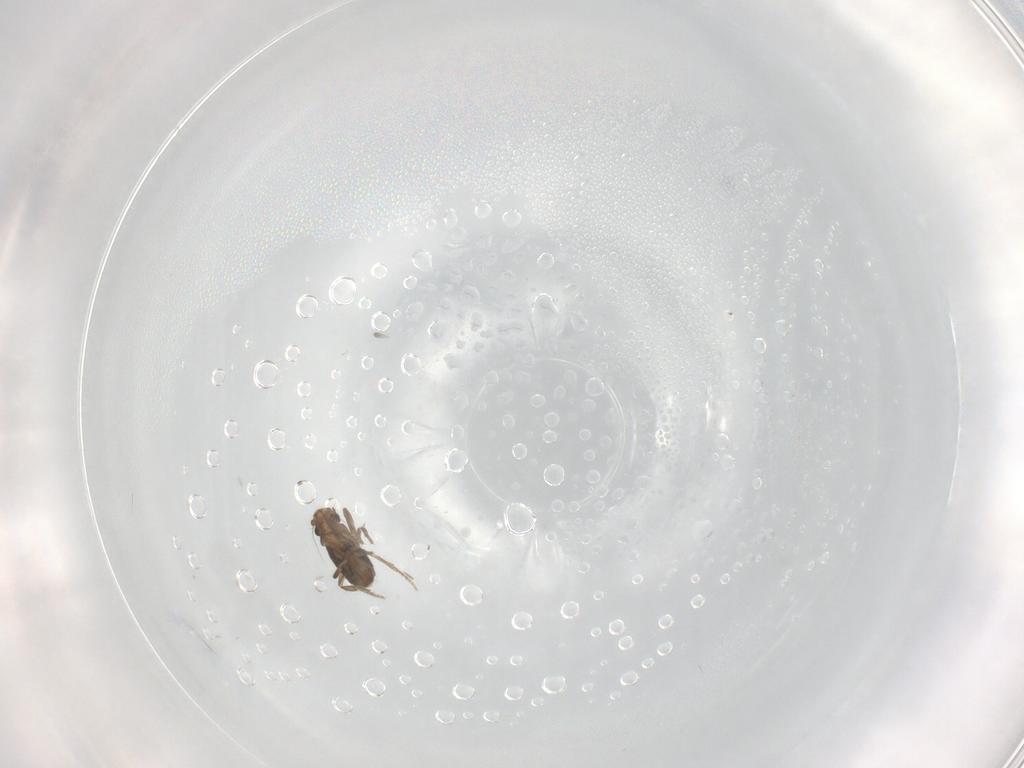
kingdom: Animalia
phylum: Arthropoda
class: Insecta
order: Diptera
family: Phoridae
